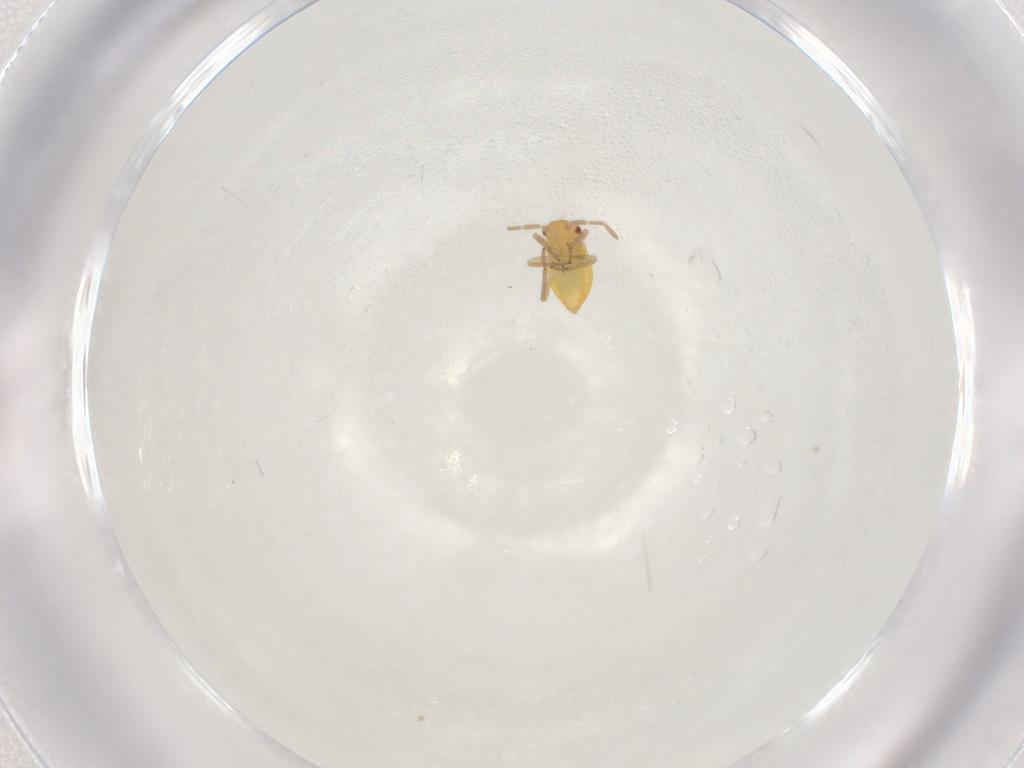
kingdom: Animalia
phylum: Arthropoda
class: Insecta
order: Hemiptera
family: Miridae
